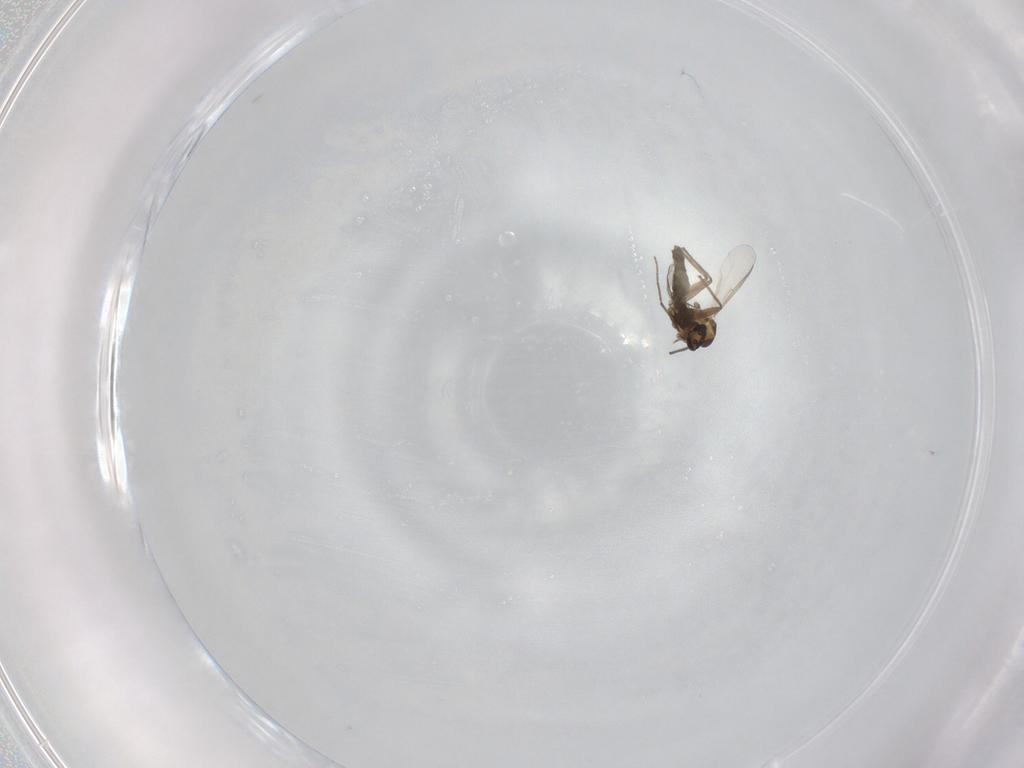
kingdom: Animalia
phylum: Arthropoda
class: Insecta
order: Diptera
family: Chironomidae
